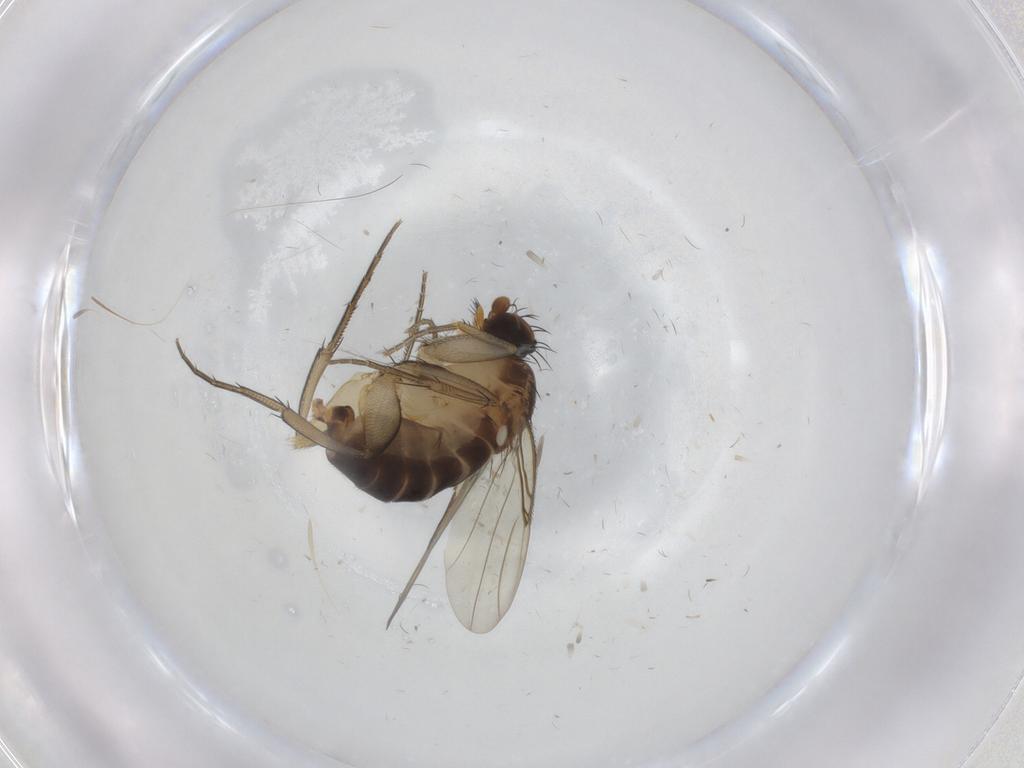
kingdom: Animalia
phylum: Arthropoda
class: Insecta
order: Diptera
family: Phoridae
